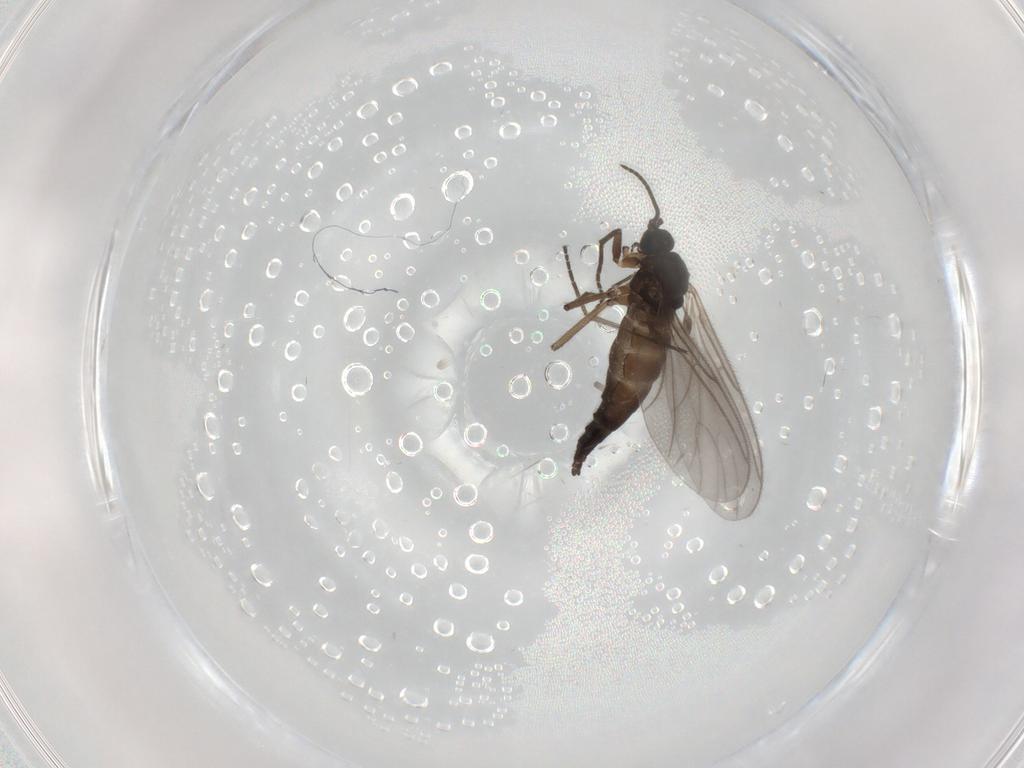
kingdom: Animalia
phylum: Arthropoda
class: Insecta
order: Diptera
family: Sciaridae
